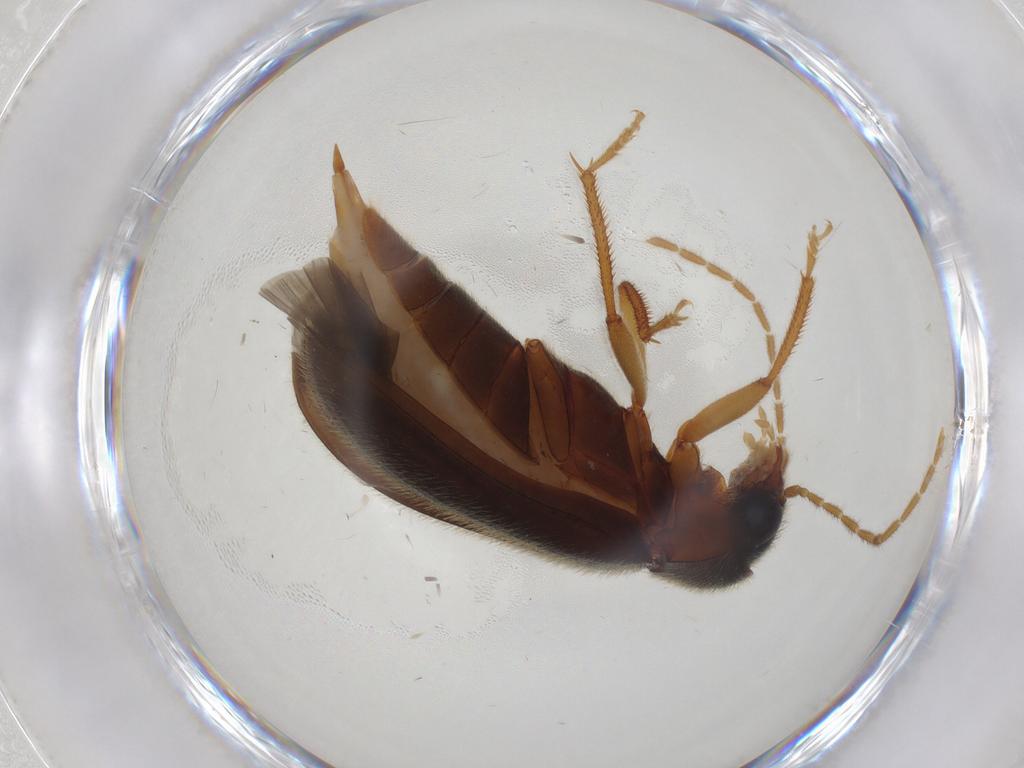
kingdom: Animalia
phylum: Arthropoda
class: Insecta
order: Coleoptera
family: Ptilodactylidae
